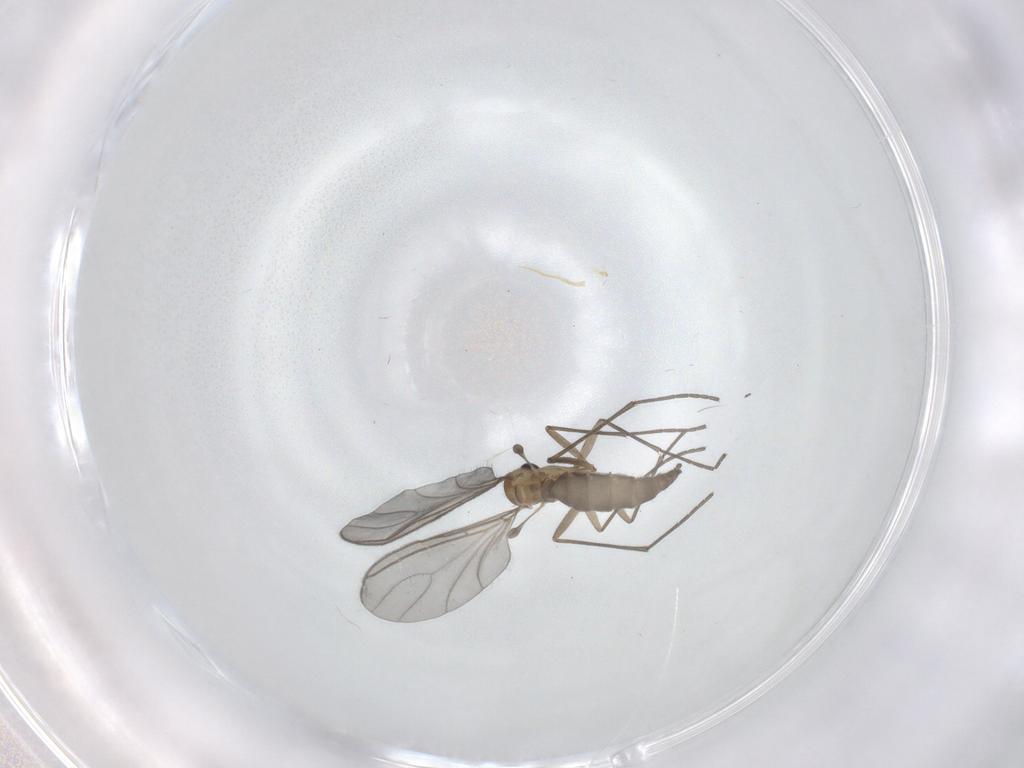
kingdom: Animalia
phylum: Arthropoda
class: Insecta
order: Diptera
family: Sciaridae
